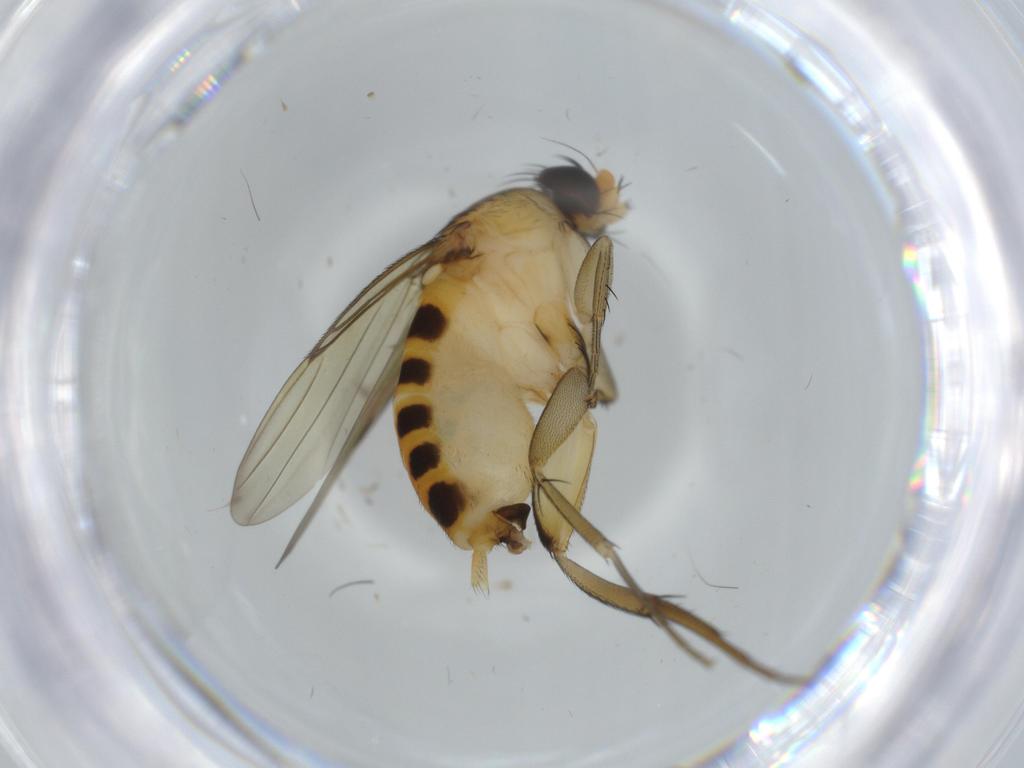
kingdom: Animalia
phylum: Arthropoda
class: Insecta
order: Diptera
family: Phoridae
